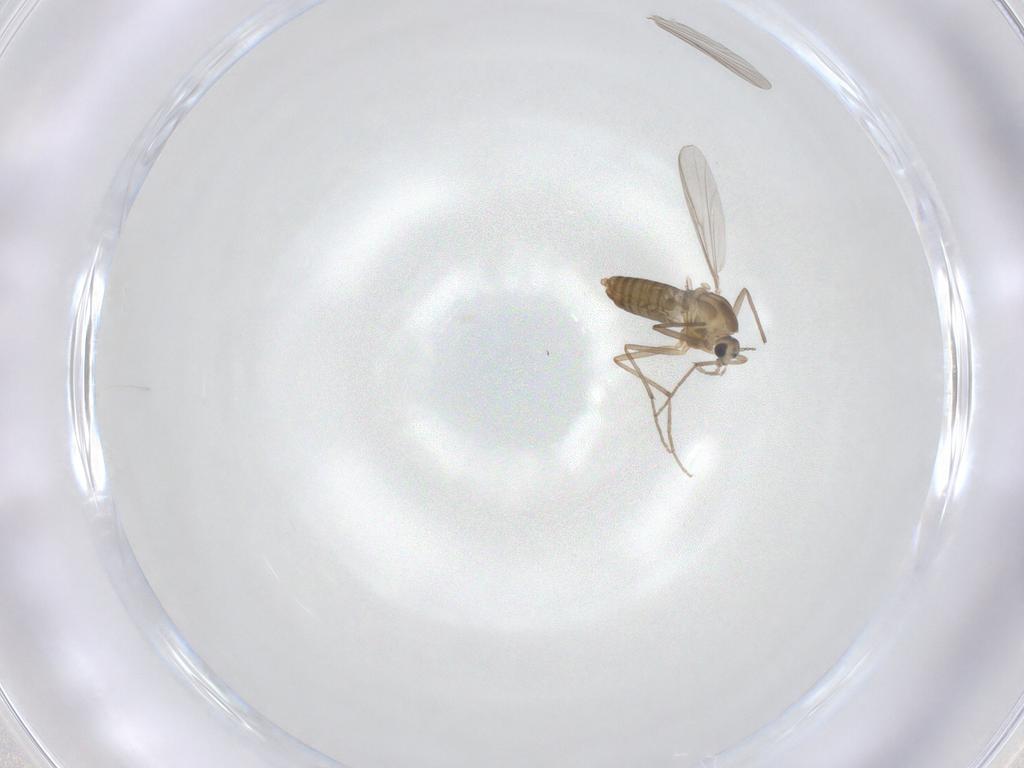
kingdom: Animalia
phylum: Arthropoda
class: Insecta
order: Diptera
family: Chironomidae
